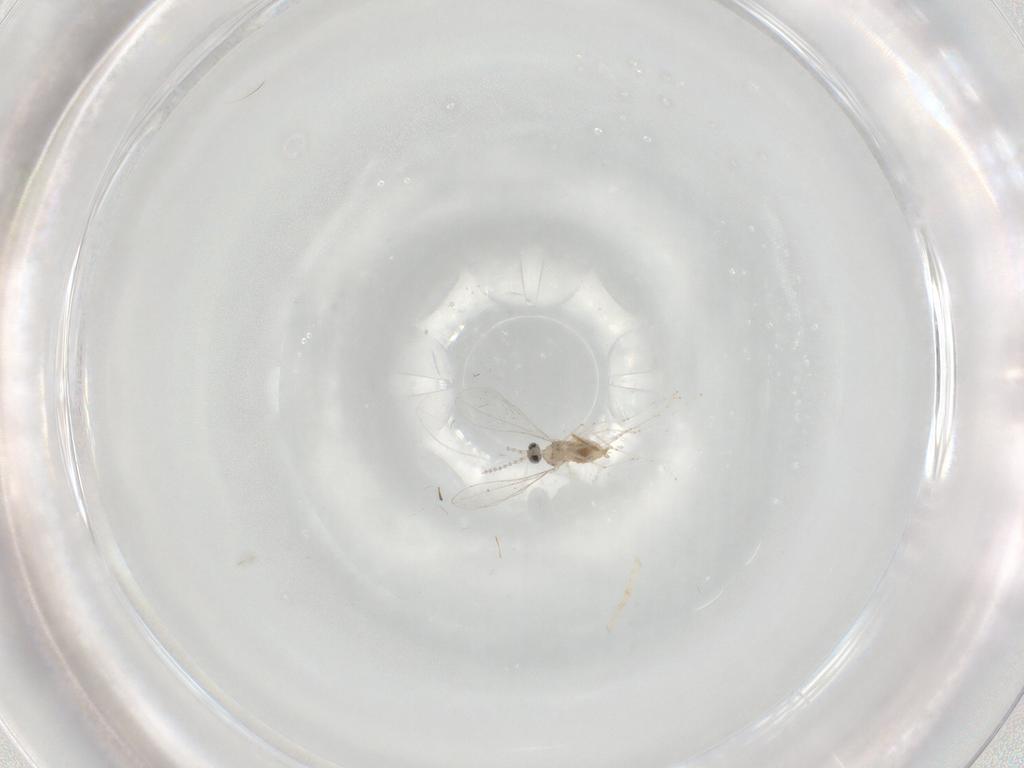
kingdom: Animalia
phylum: Arthropoda
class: Insecta
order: Diptera
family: Cecidomyiidae
